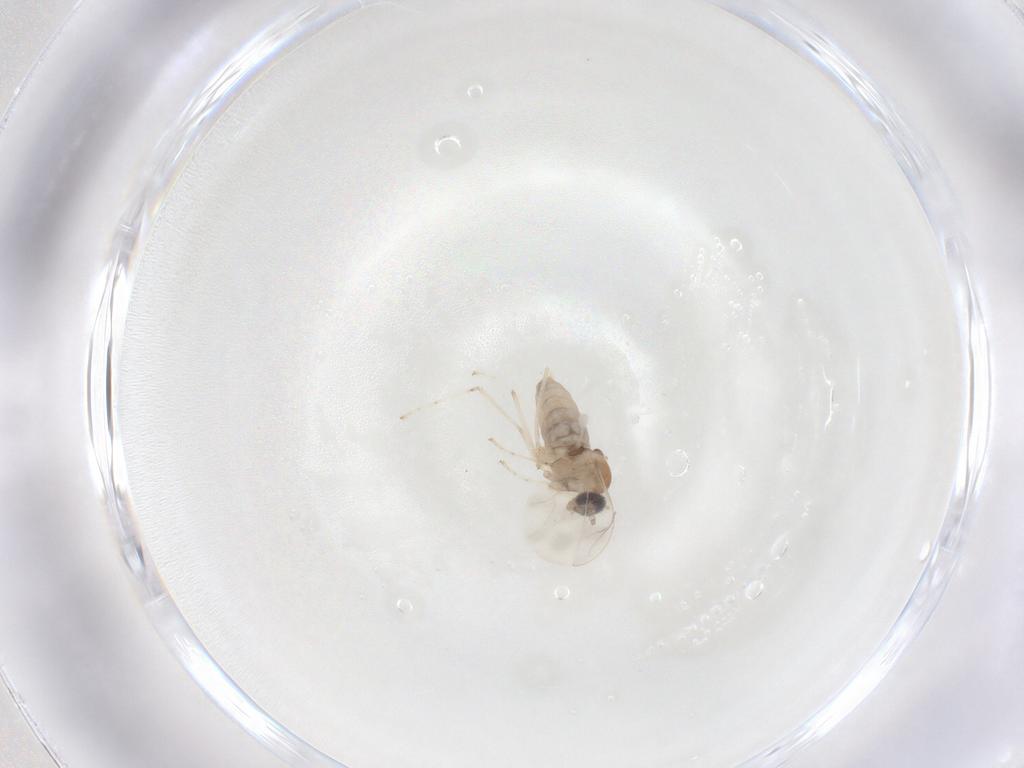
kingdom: Animalia
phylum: Arthropoda
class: Insecta
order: Diptera
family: Cecidomyiidae
